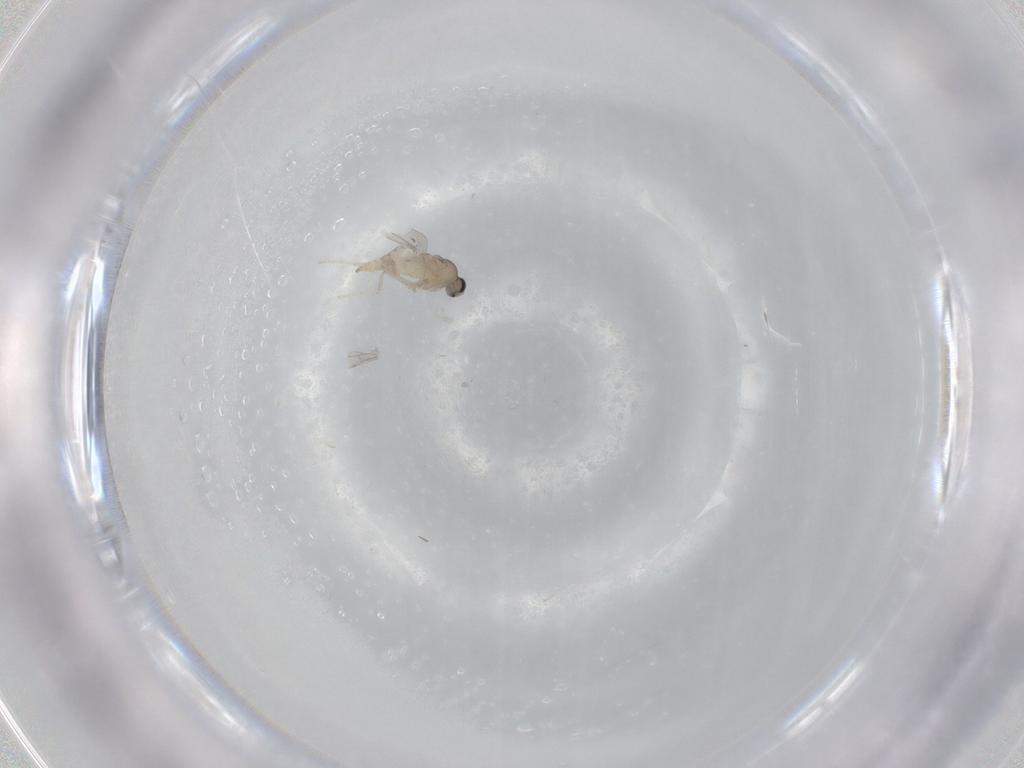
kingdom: Animalia
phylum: Arthropoda
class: Insecta
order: Diptera
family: Cecidomyiidae
